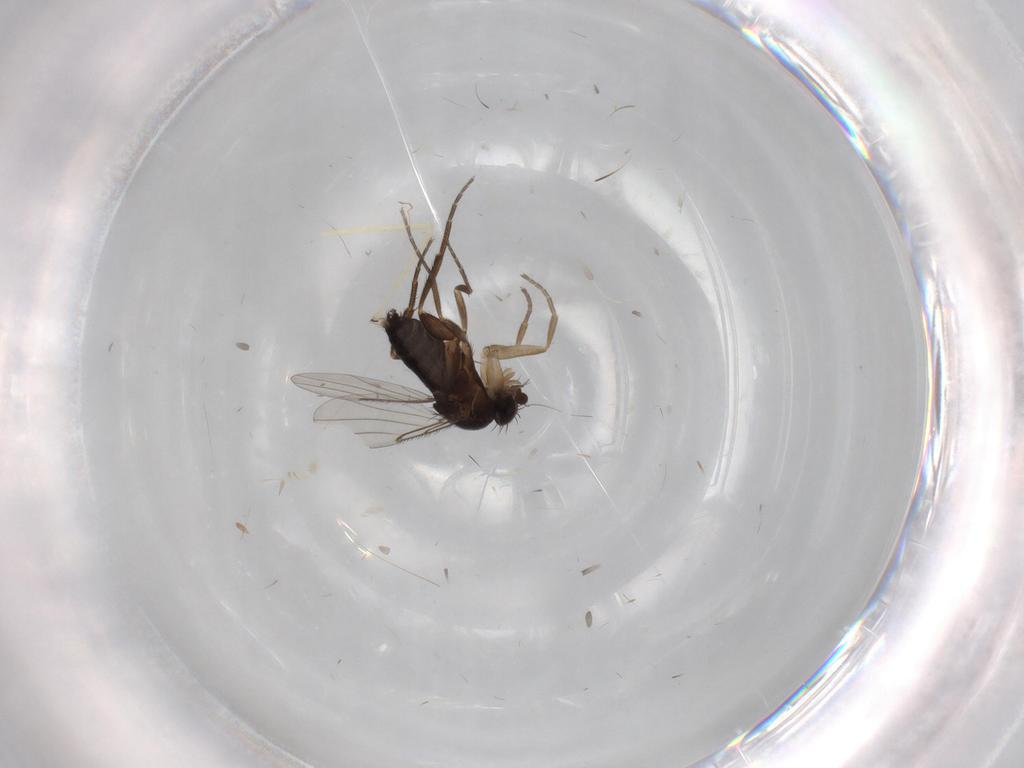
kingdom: Animalia
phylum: Arthropoda
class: Insecta
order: Diptera
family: Phoridae
